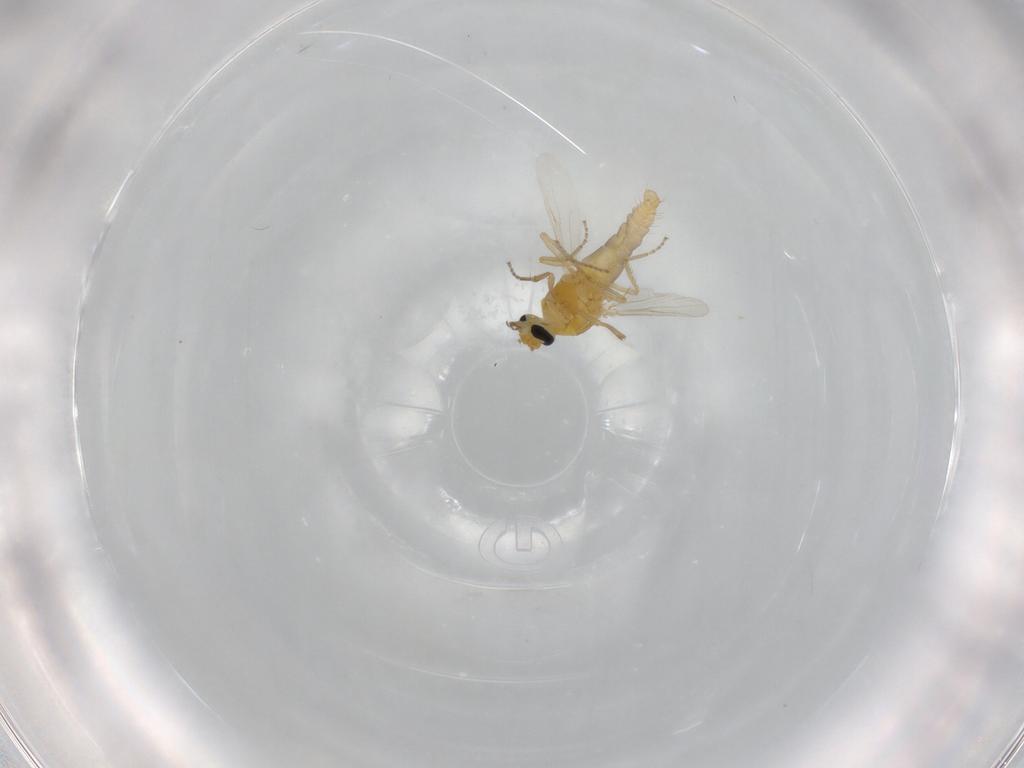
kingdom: Animalia
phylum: Arthropoda
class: Insecta
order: Diptera
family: Ceratopogonidae
